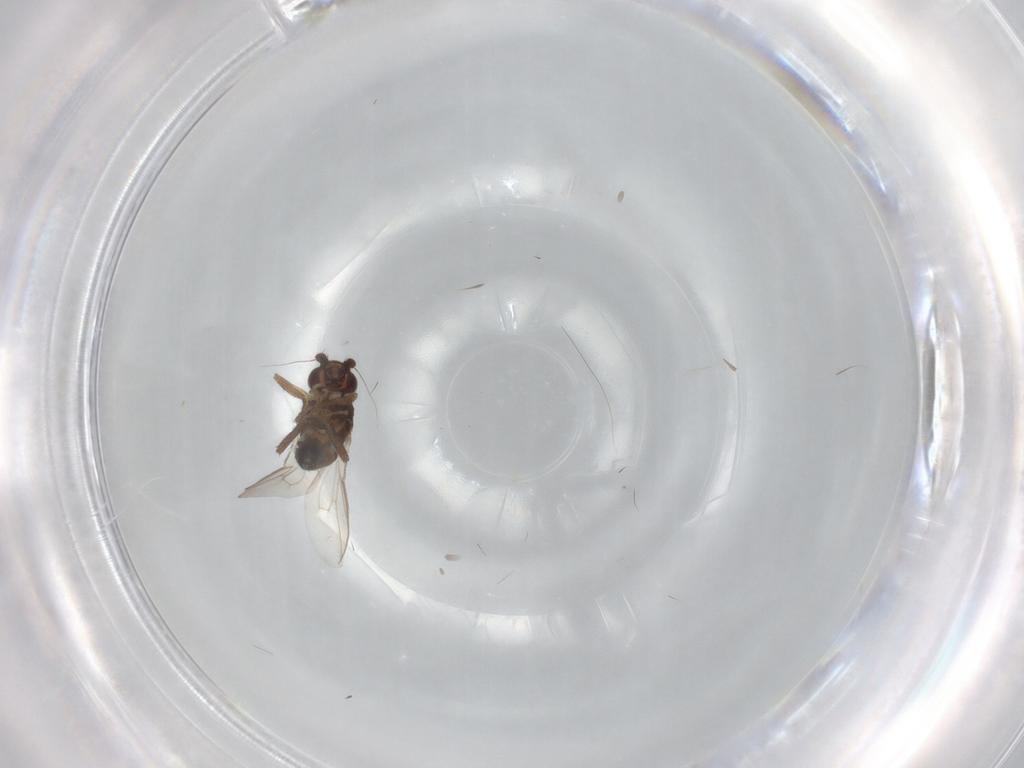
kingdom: Animalia
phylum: Arthropoda
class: Insecta
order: Diptera
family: Sphaeroceridae
